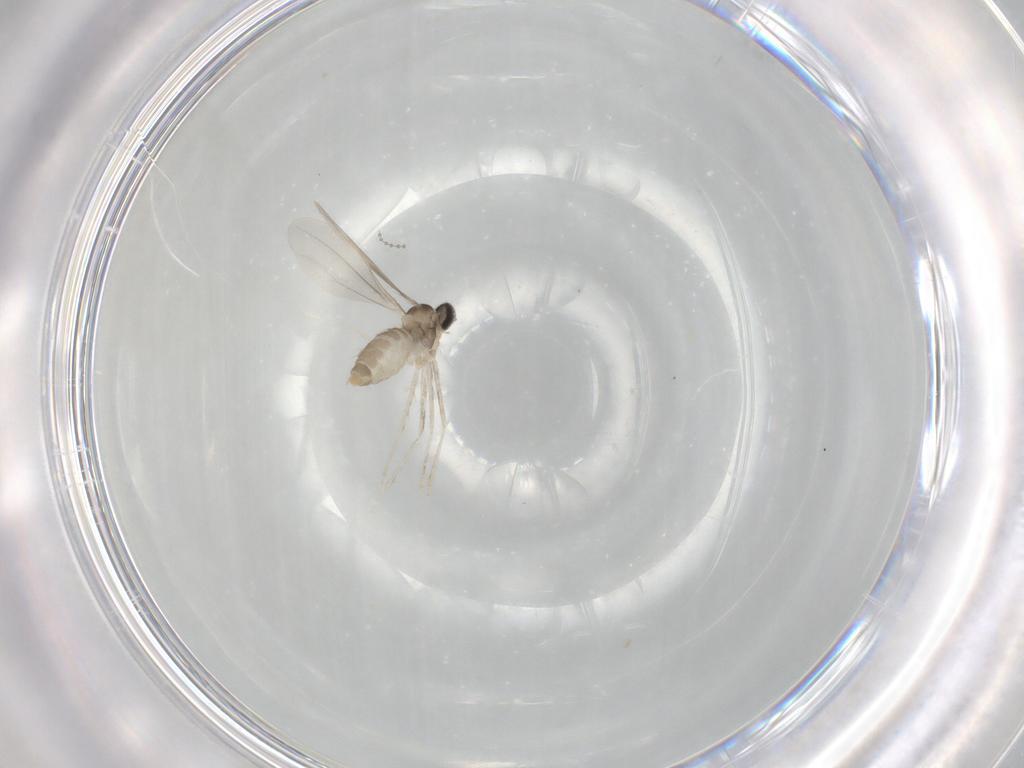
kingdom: Animalia
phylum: Arthropoda
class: Insecta
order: Diptera
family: Cecidomyiidae
